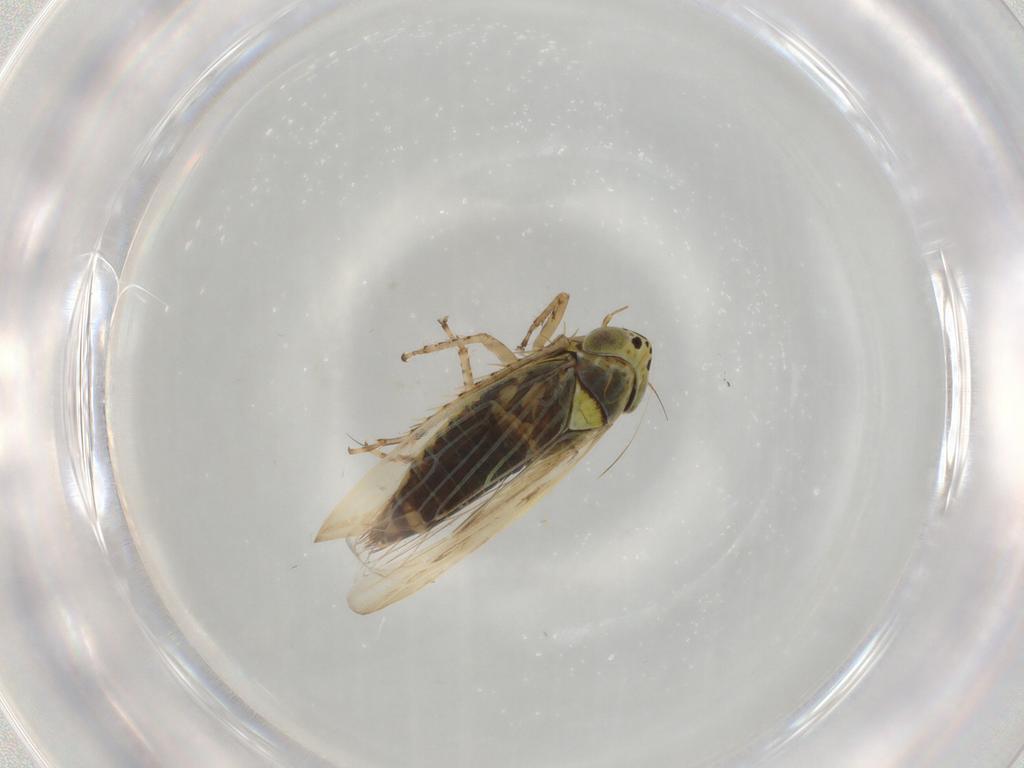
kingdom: Animalia
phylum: Arthropoda
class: Insecta
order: Hemiptera
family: Cicadellidae
